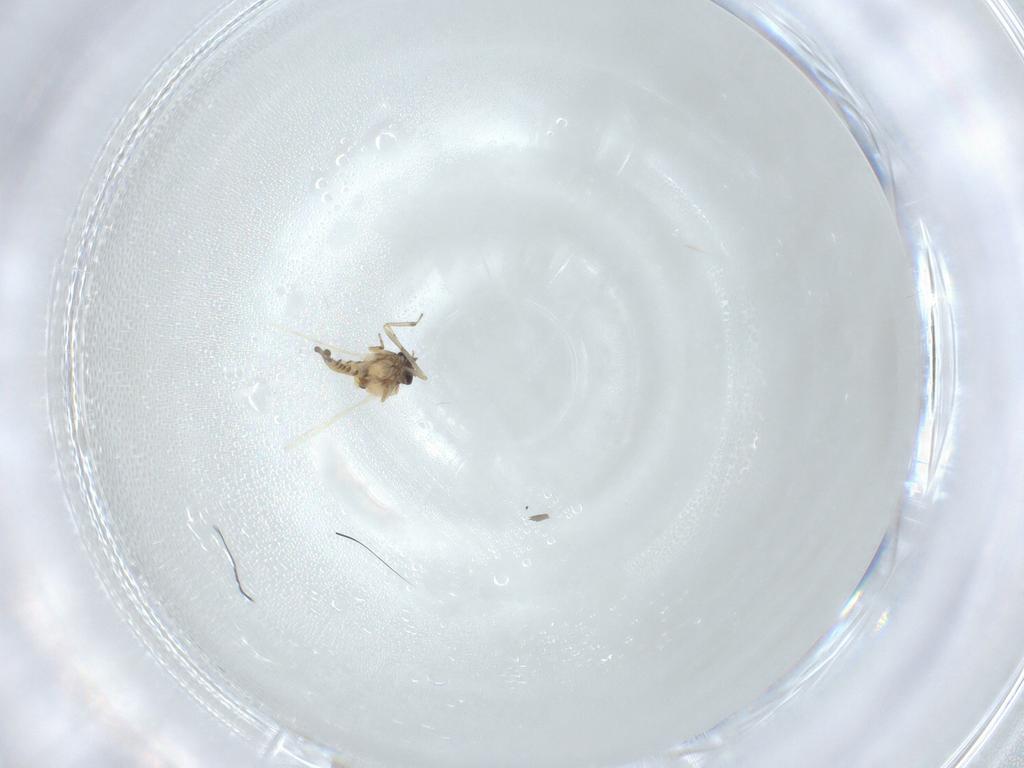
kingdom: Animalia
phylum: Arthropoda
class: Insecta
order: Diptera
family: Ceratopogonidae
